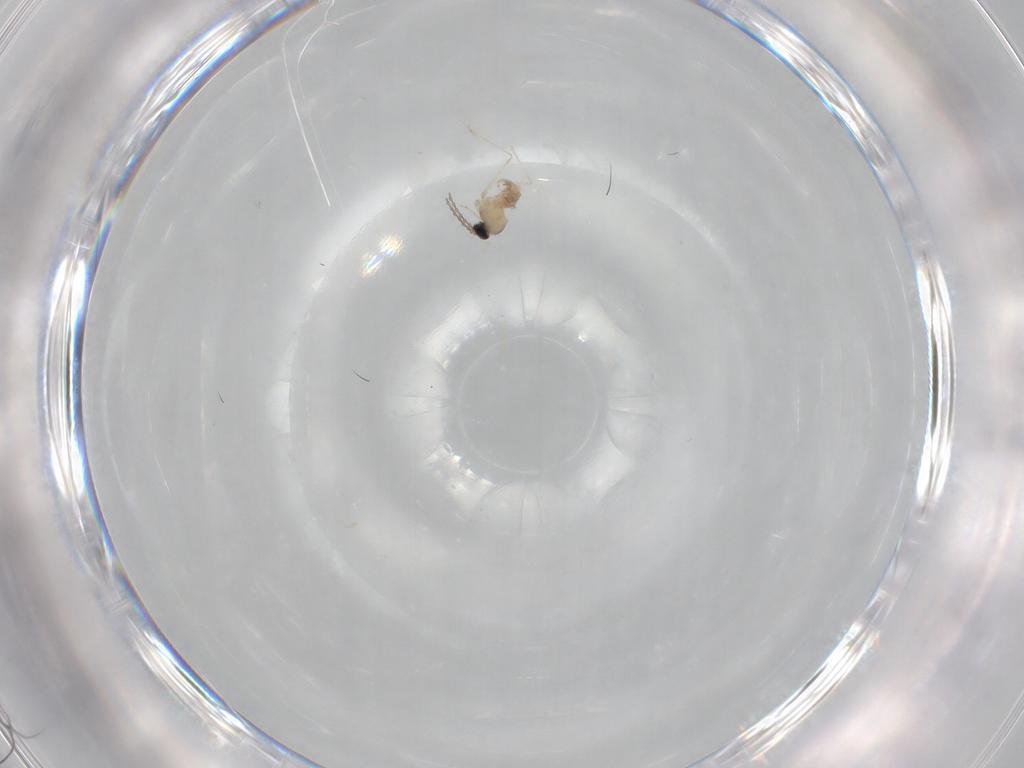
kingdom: Animalia
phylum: Arthropoda
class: Insecta
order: Diptera
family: Cecidomyiidae
